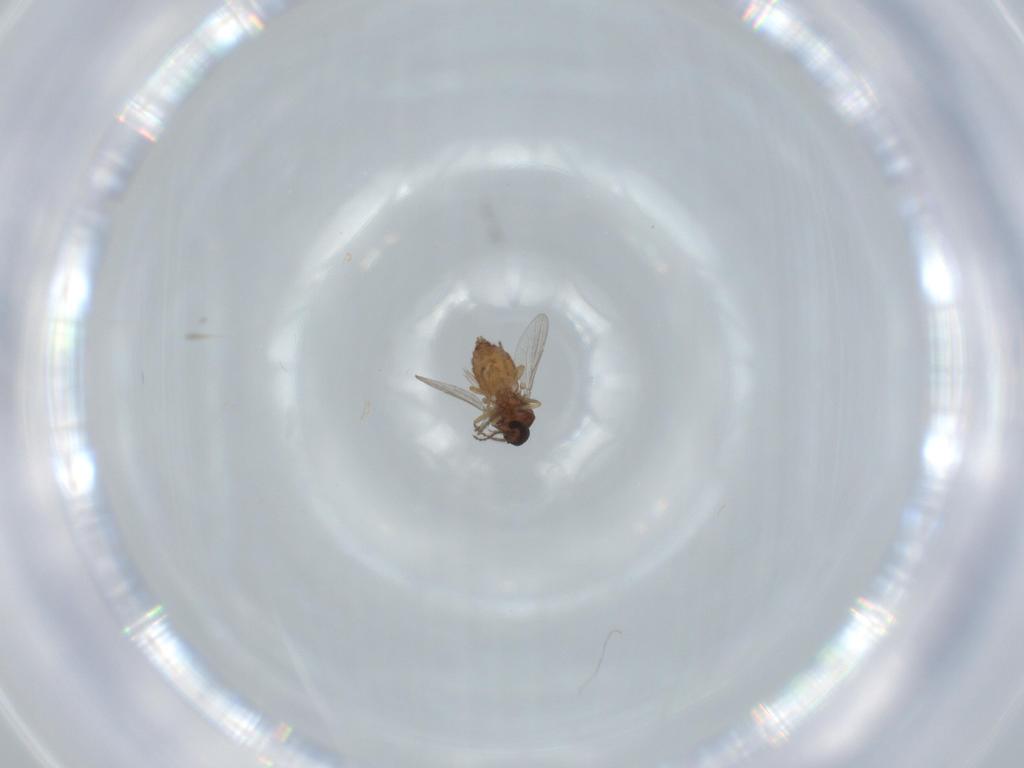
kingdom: Animalia
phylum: Arthropoda
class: Insecta
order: Diptera
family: Ceratopogonidae
